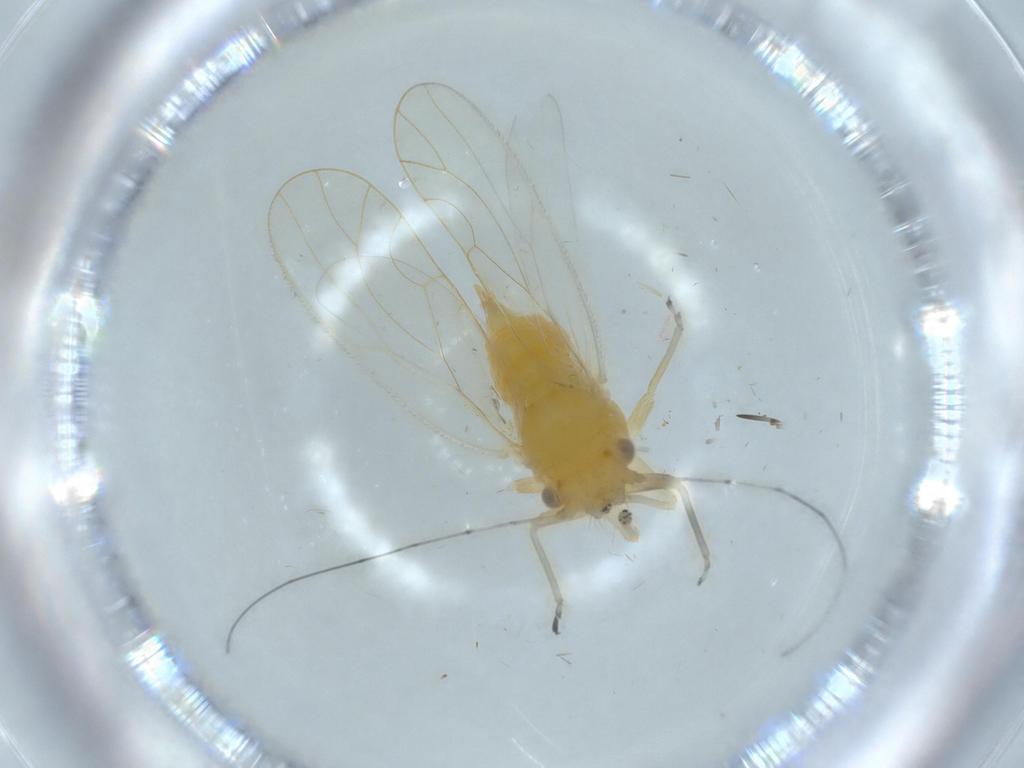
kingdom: Animalia
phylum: Arthropoda
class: Insecta
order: Hemiptera
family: Psyllidae
